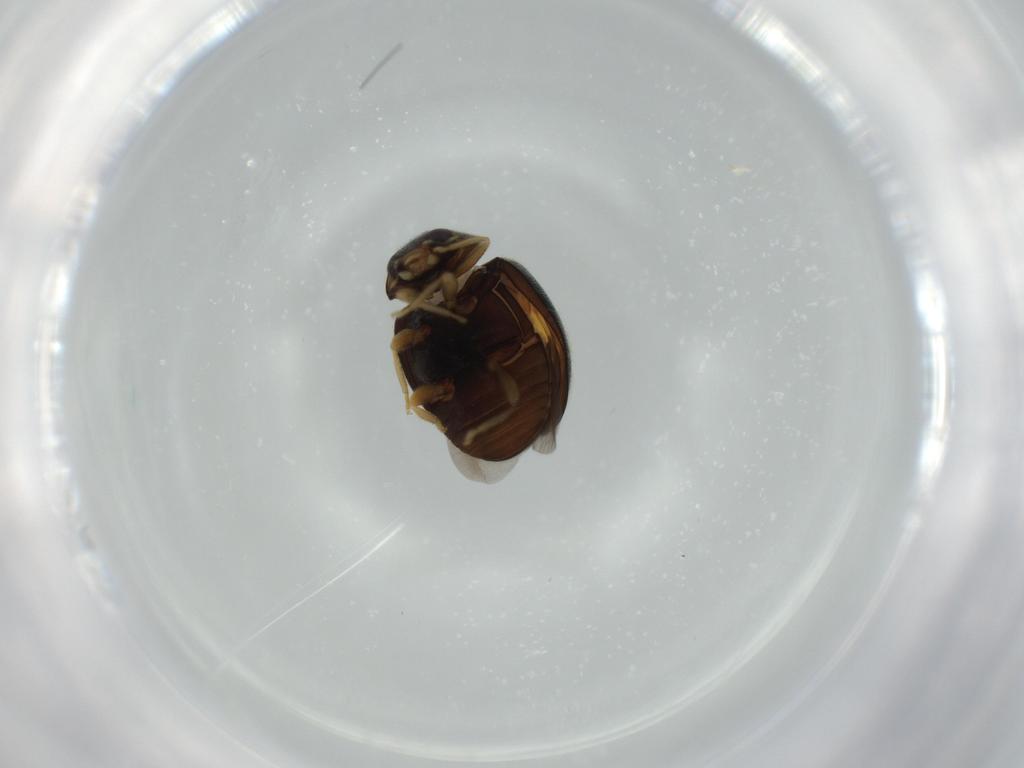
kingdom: Animalia
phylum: Arthropoda
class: Insecta
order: Coleoptera
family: Coccinellidae
